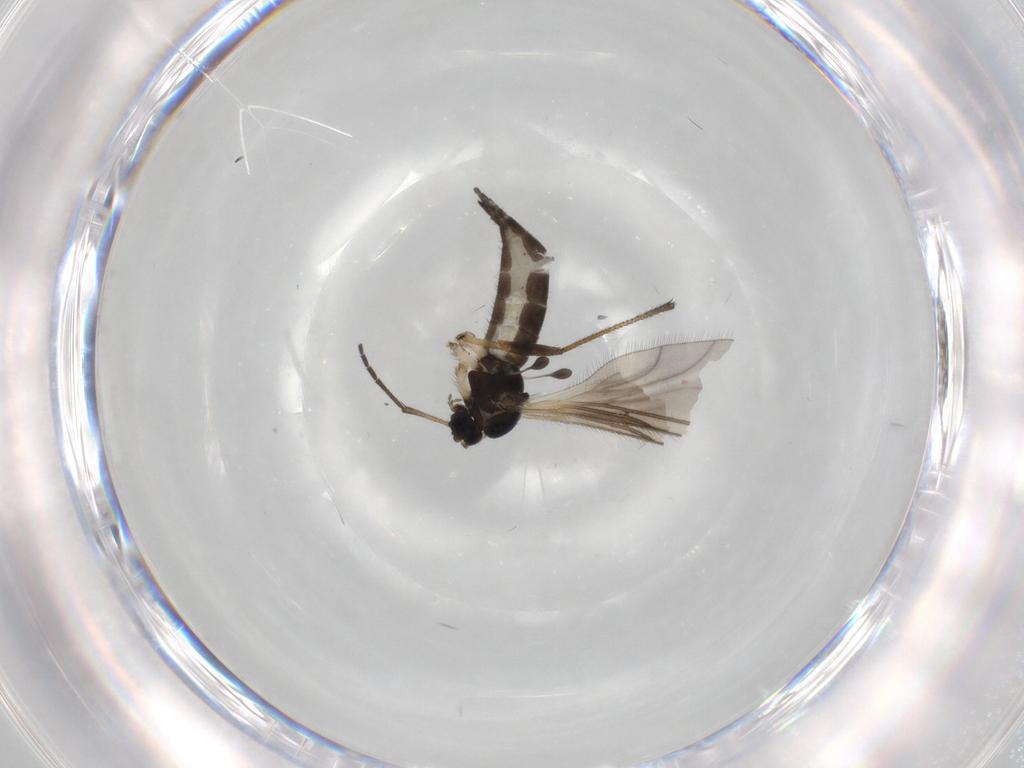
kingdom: Animalia
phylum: Arthropoda
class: Insecta
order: Diptera
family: Sciaridae
